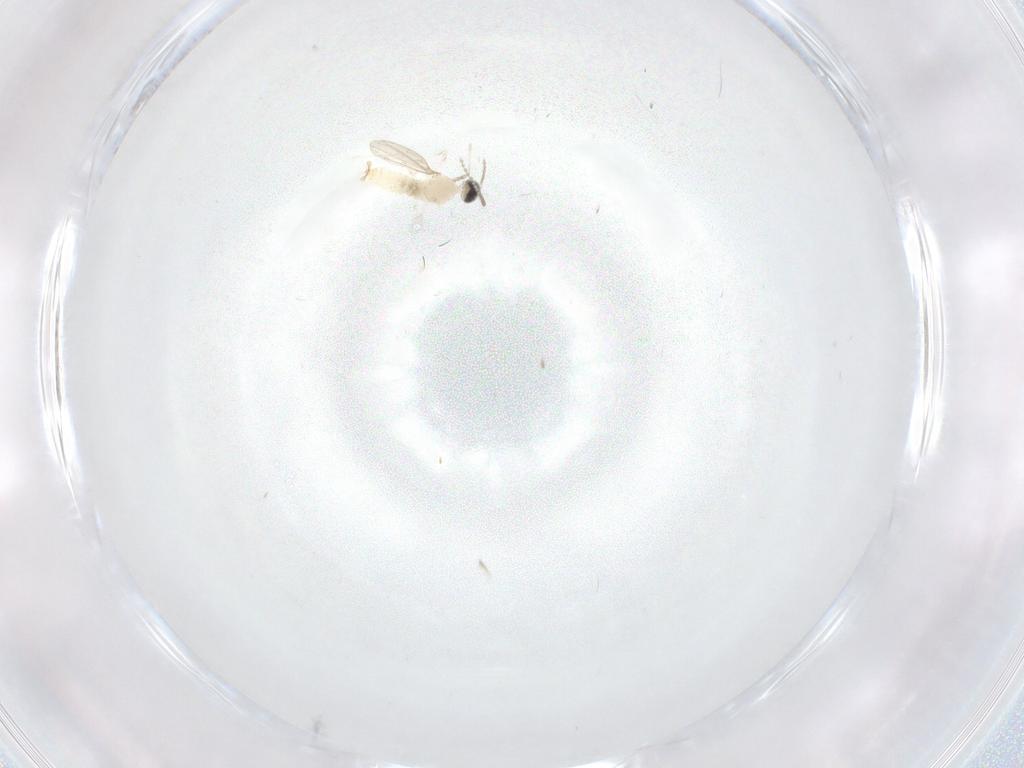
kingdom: Animalia
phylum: Arthropoda
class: Insecta
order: Diptera
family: Cecidomyiidae
